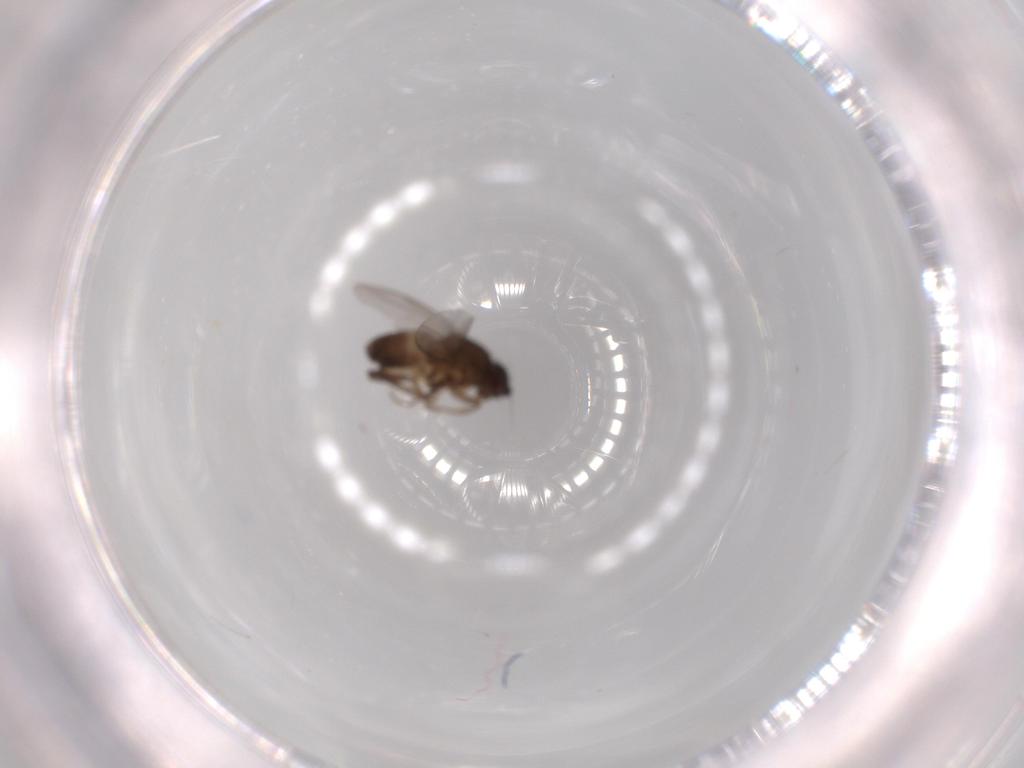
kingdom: Animalia
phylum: Arthropoda
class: Insecta
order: Diptera
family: Sphaeroceridae
